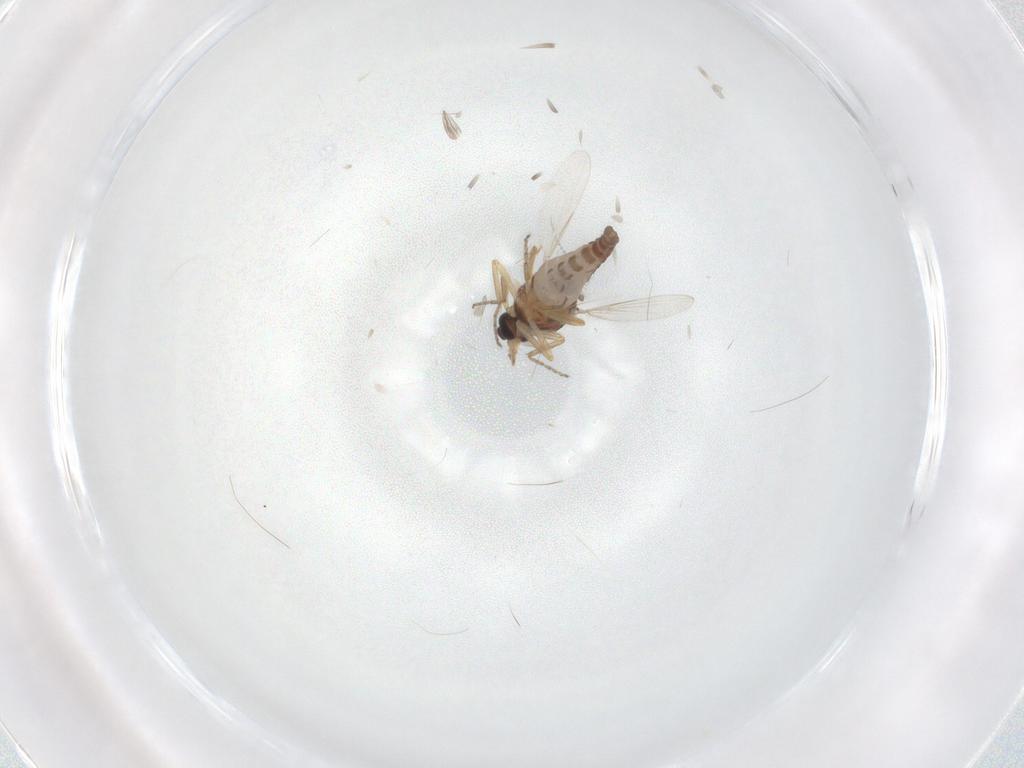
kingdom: Animalia
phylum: Arthropoda
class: Insecta
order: Diptera
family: Ceratopogonidae
